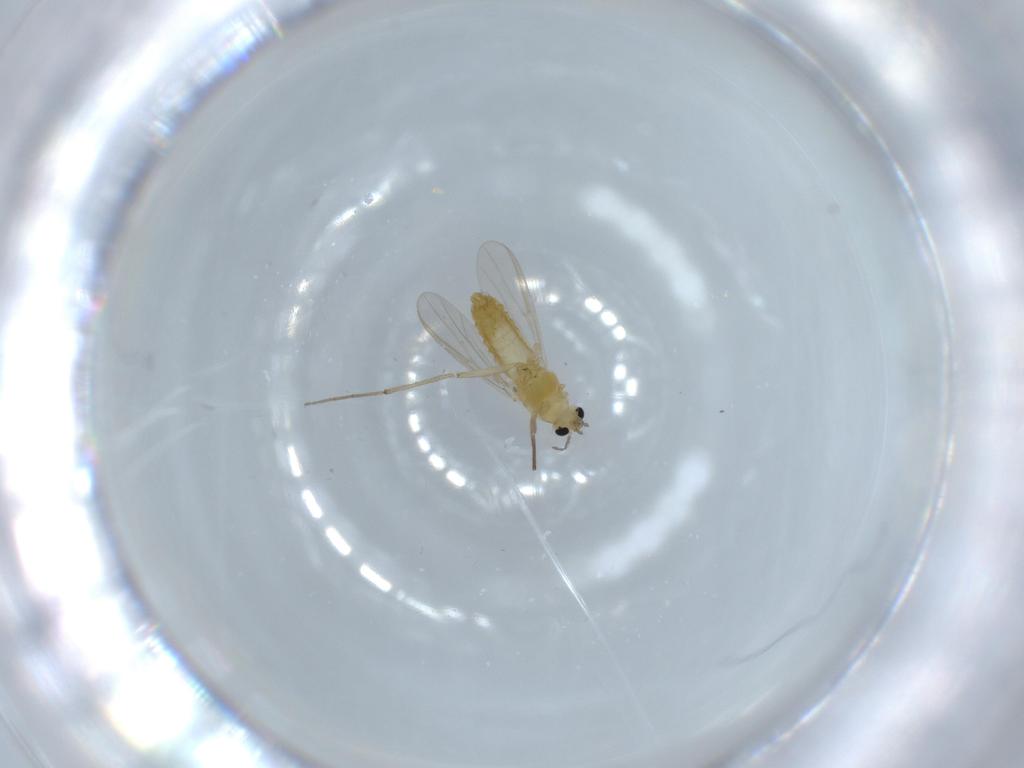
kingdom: Animalia
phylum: Arthropoda
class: Insecta
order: Diptera
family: Chironomidae
